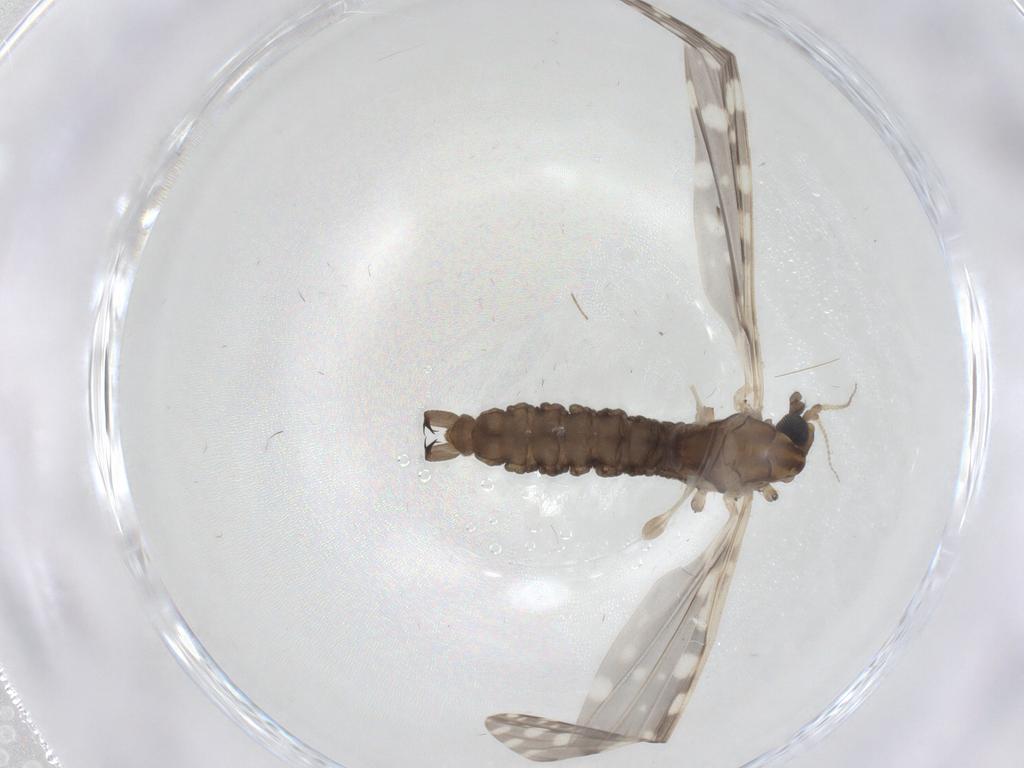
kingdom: Animalia
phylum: Arthropoda
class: Insecta
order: Diptera
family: Limoniidae
